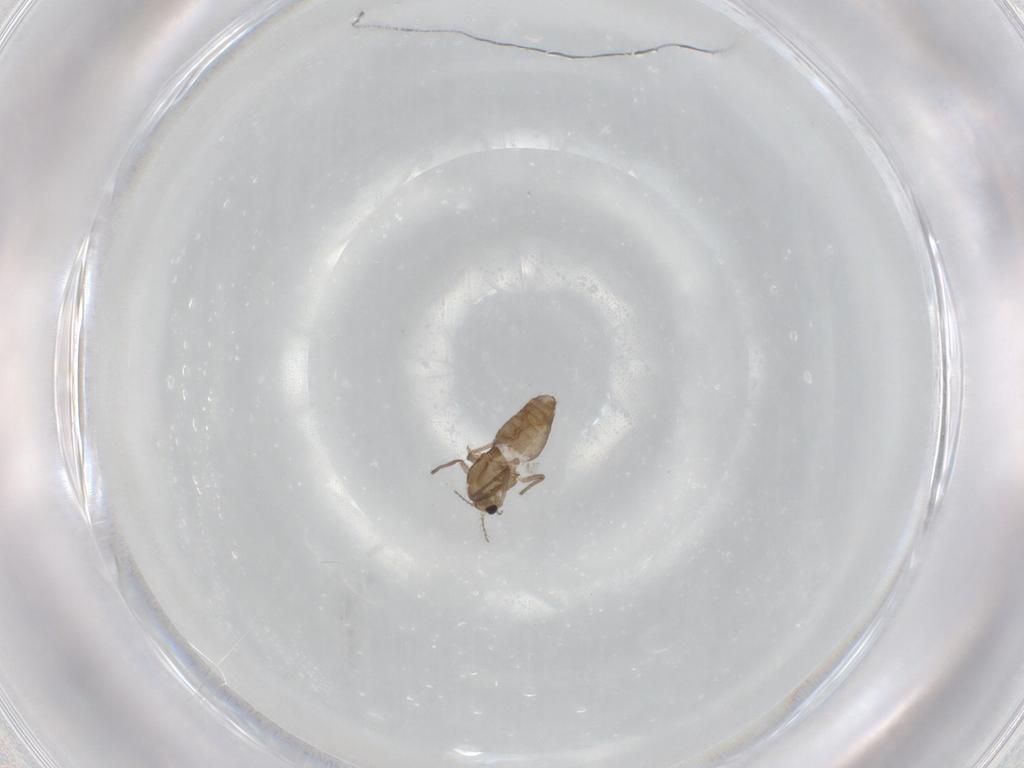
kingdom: Animalia
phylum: Arthropoda
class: Insecta
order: Diptera
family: Chironomidae
